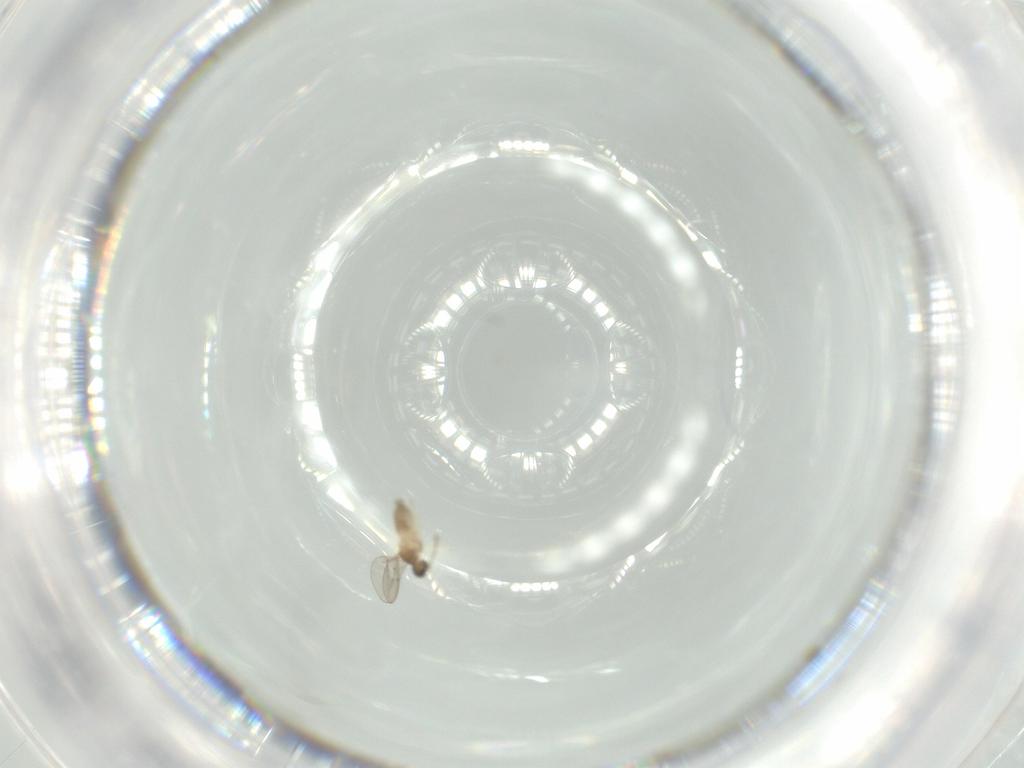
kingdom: Animalia
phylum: Arthropoda
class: Insecta
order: Diptera
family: Cecidomyiidae
